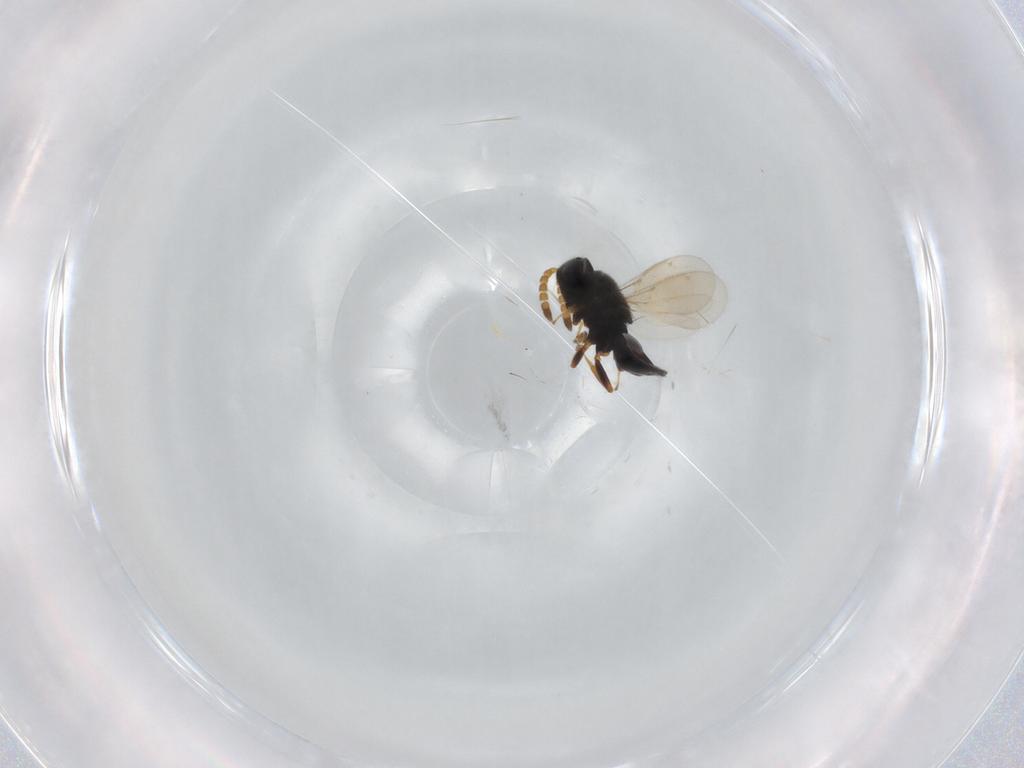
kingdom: Animalia
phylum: Arthropoda
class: Insecta
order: Hymenoptera
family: Encyrtidae
